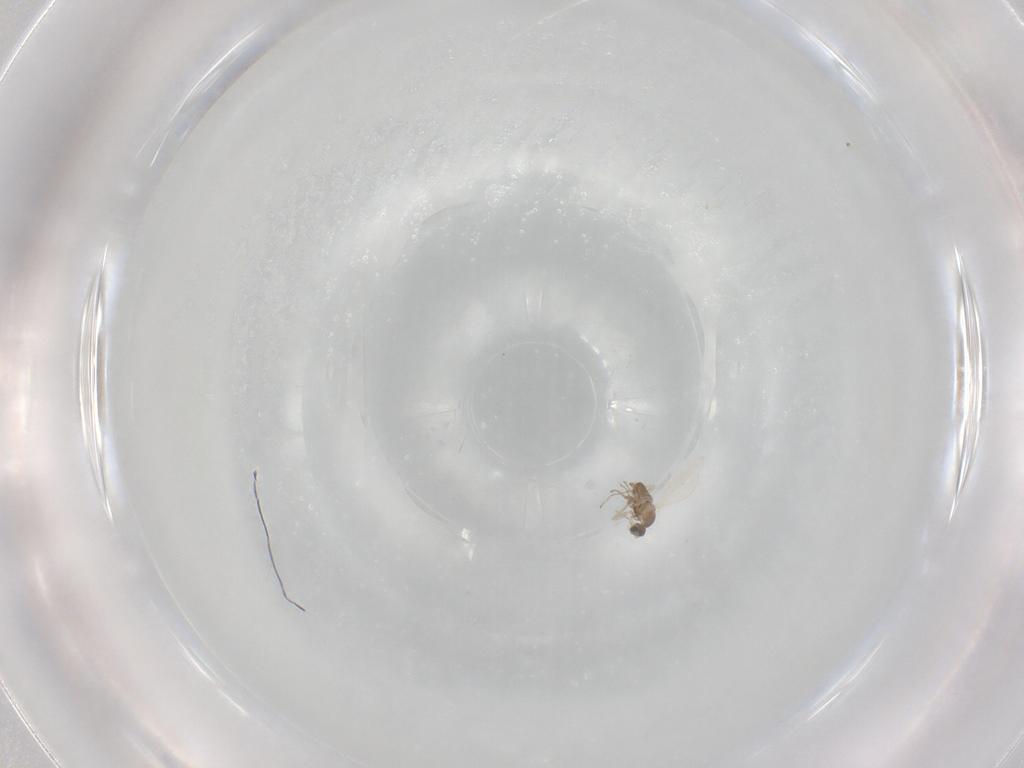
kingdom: Animalia
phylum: Arthropoda
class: Insecta
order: Diptera
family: Cecidomyiidae
